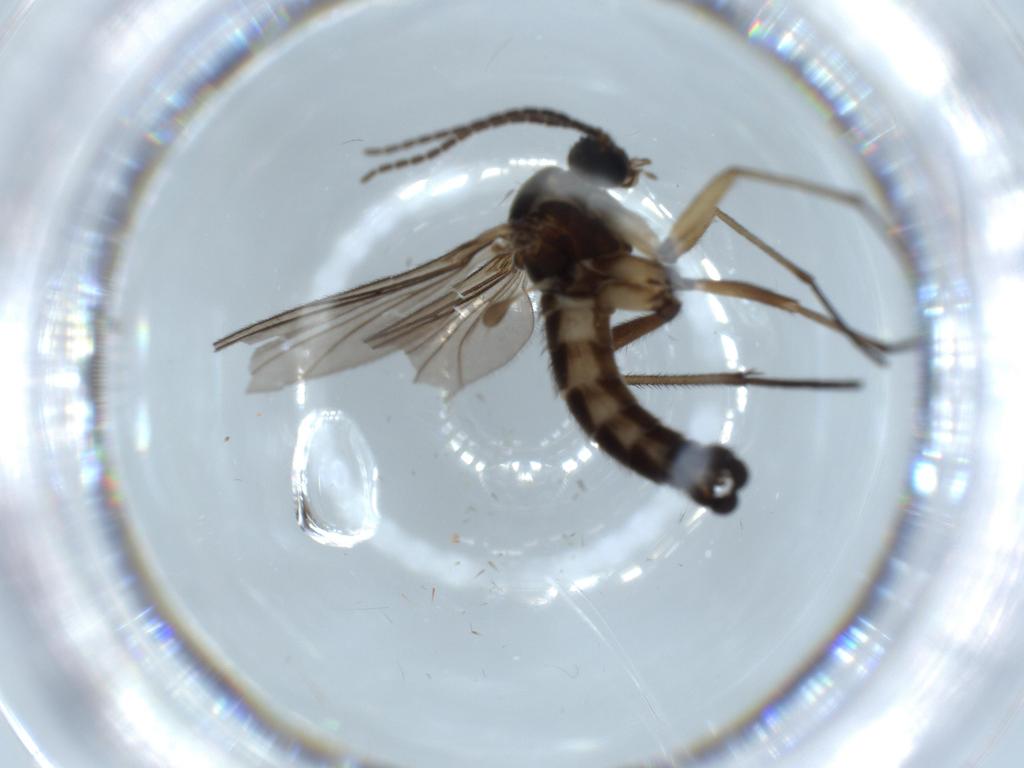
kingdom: Animalia
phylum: Arthropoda
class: Insecta
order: Diptera
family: Sciaridae
